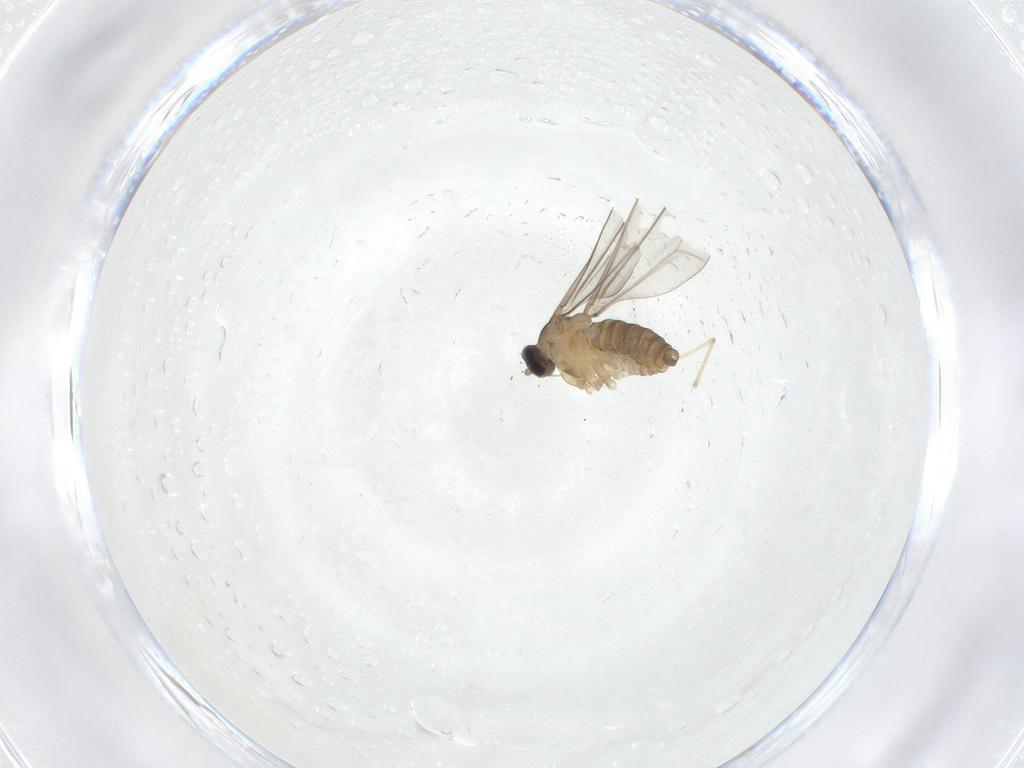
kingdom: Animalia
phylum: Arthropoda
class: Insecta
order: Diptera
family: Cecidomyiidae
